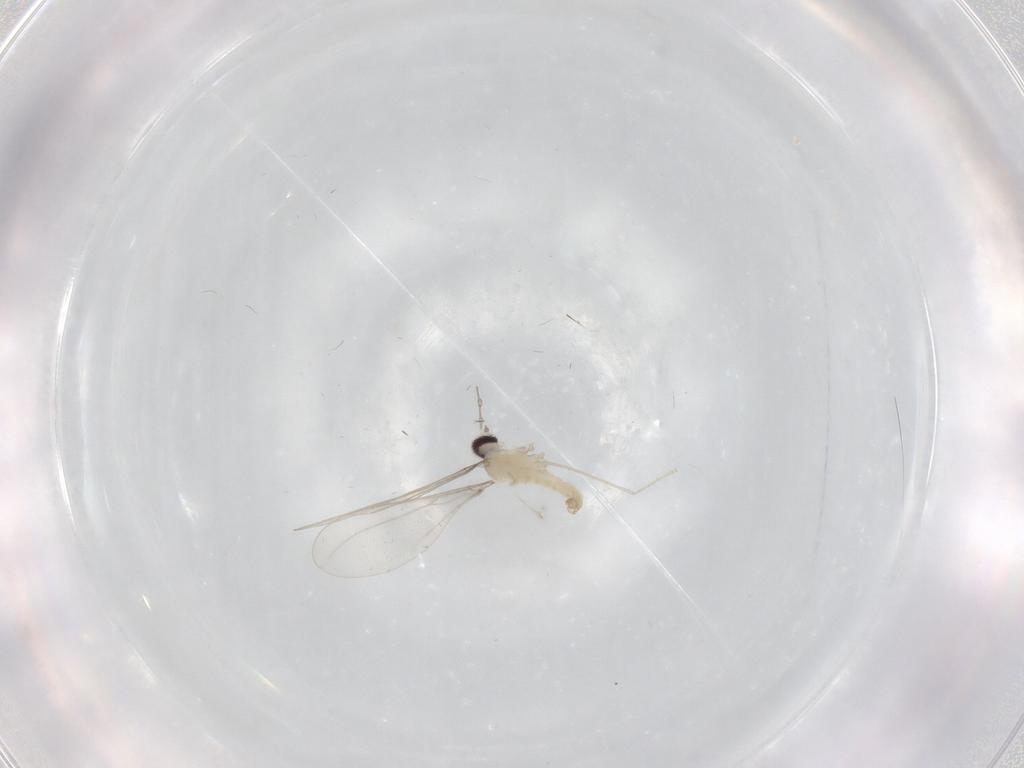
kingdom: Animalia
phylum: Arthropoda
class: Insecta
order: Diptera
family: Cecidomyiidae
